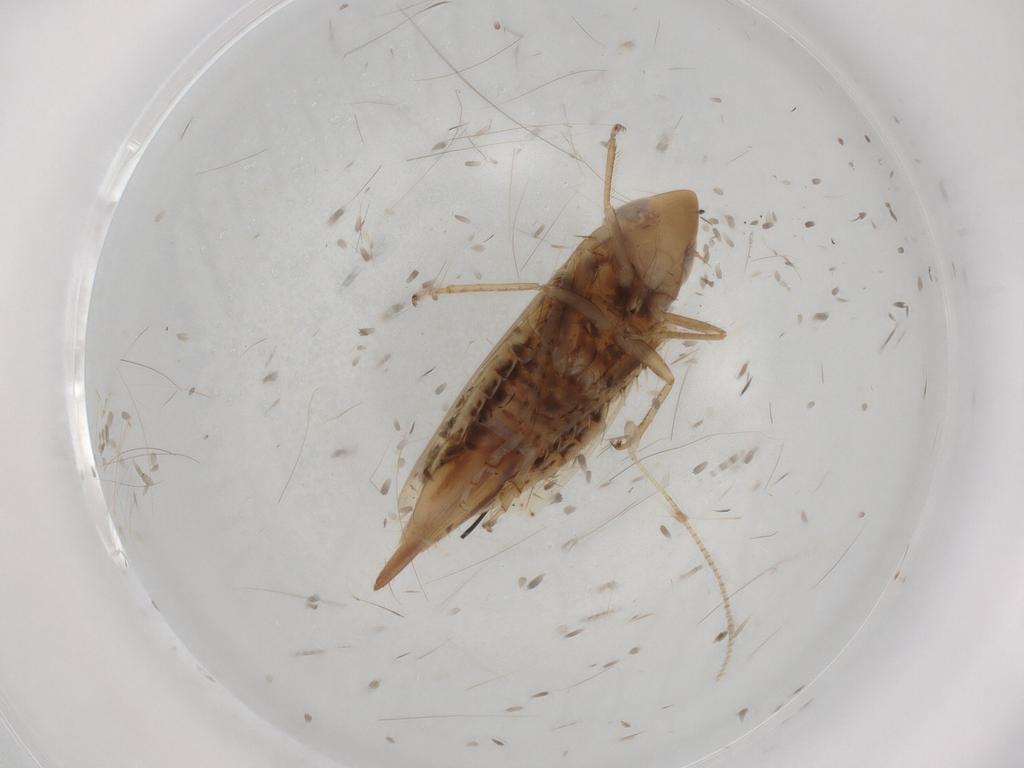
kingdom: Animalia
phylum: Arthropoda
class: Insecta
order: Hemiptera
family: Cicadellidae
